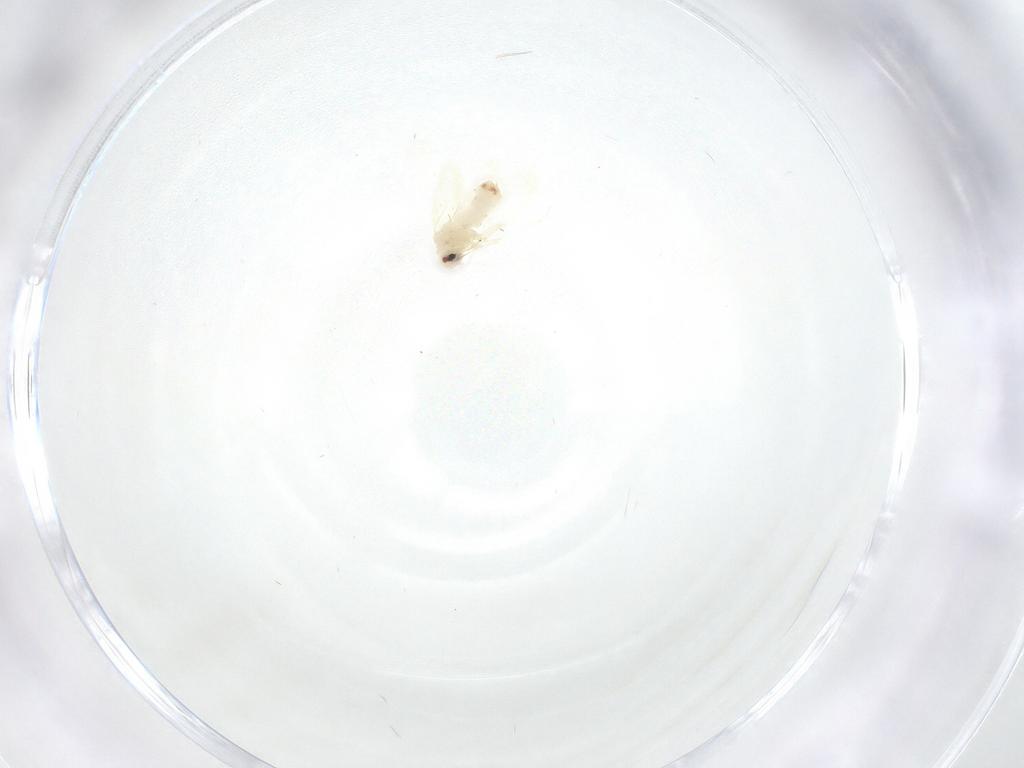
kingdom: Animalia
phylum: Arthropoda
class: Insecta
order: Hemiptera
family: Aleyrodidae
